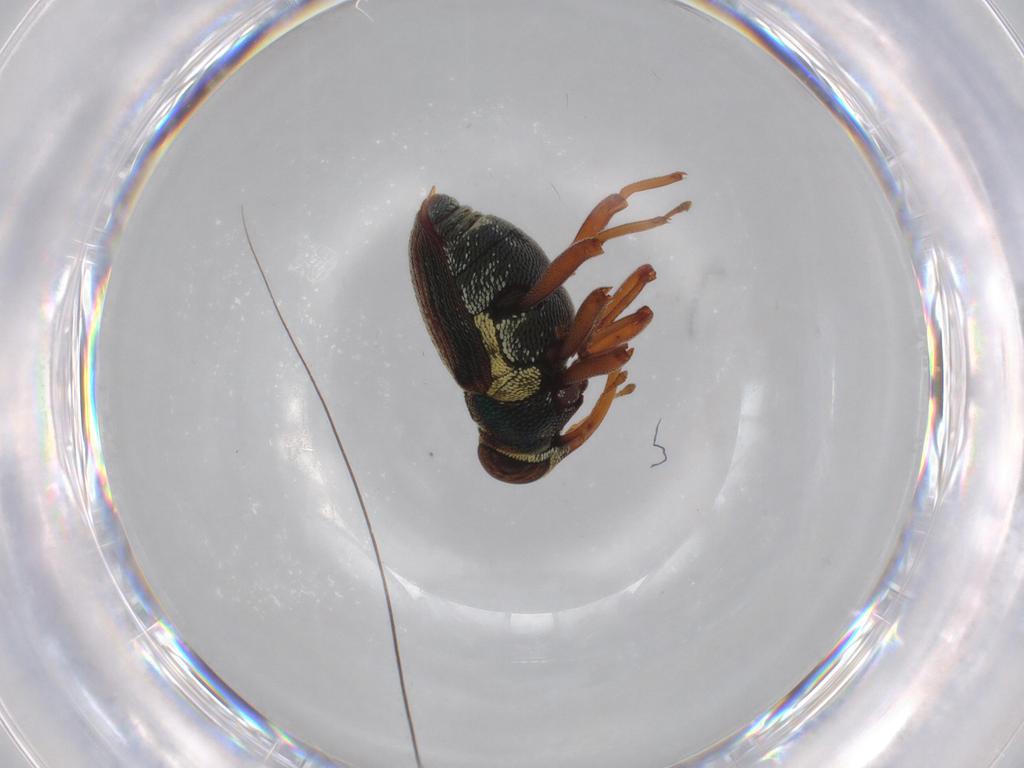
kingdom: Animalia
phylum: Arthropoda
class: Insecta
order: Coleoptera
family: Curculionidae
